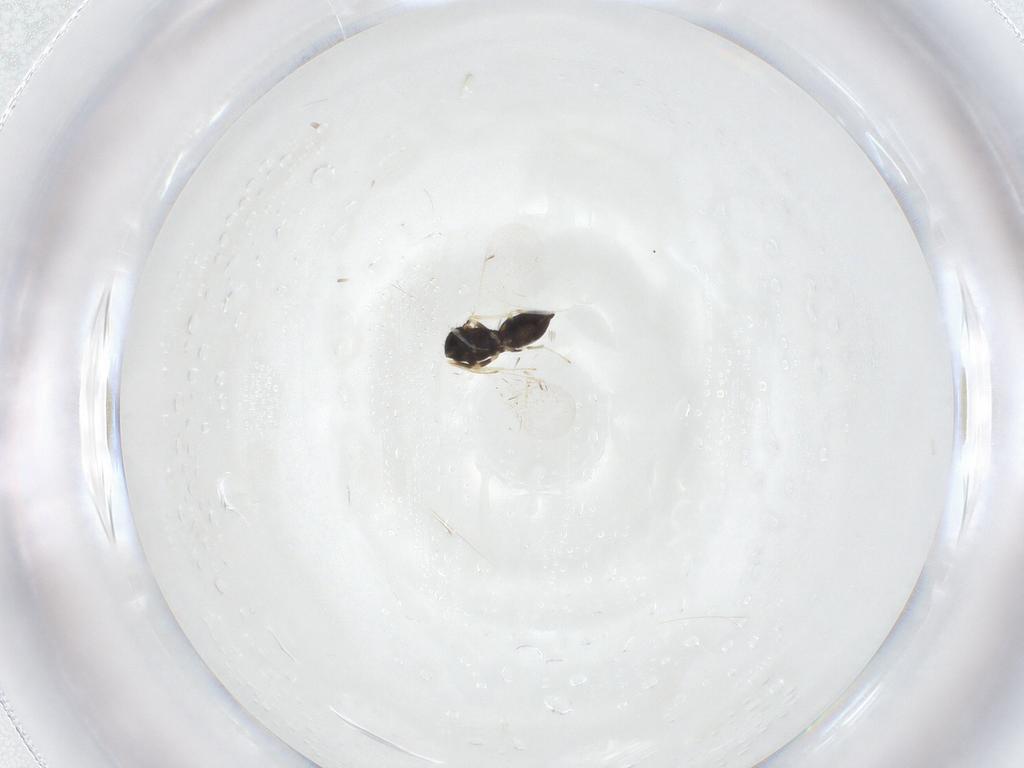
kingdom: Animalia
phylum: Arthropoda
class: Insecta
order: Hymenoptera
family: Eulophidae
